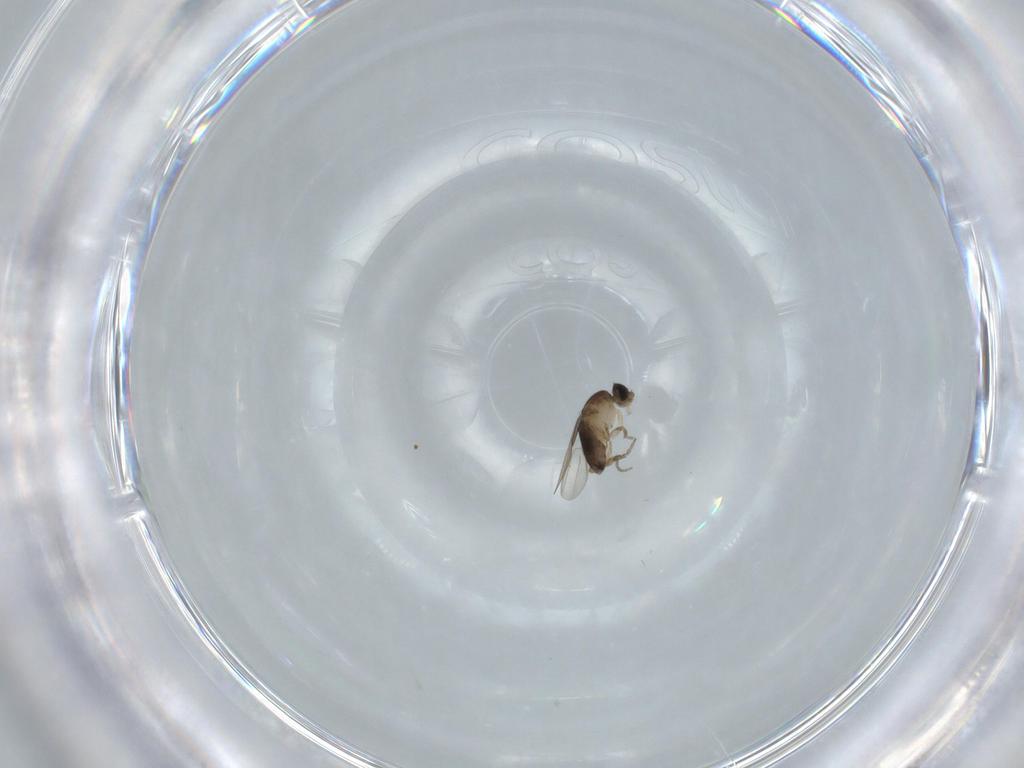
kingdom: Animalia
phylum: Arthropoda
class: Insecta
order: Diptera
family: Phoridae
